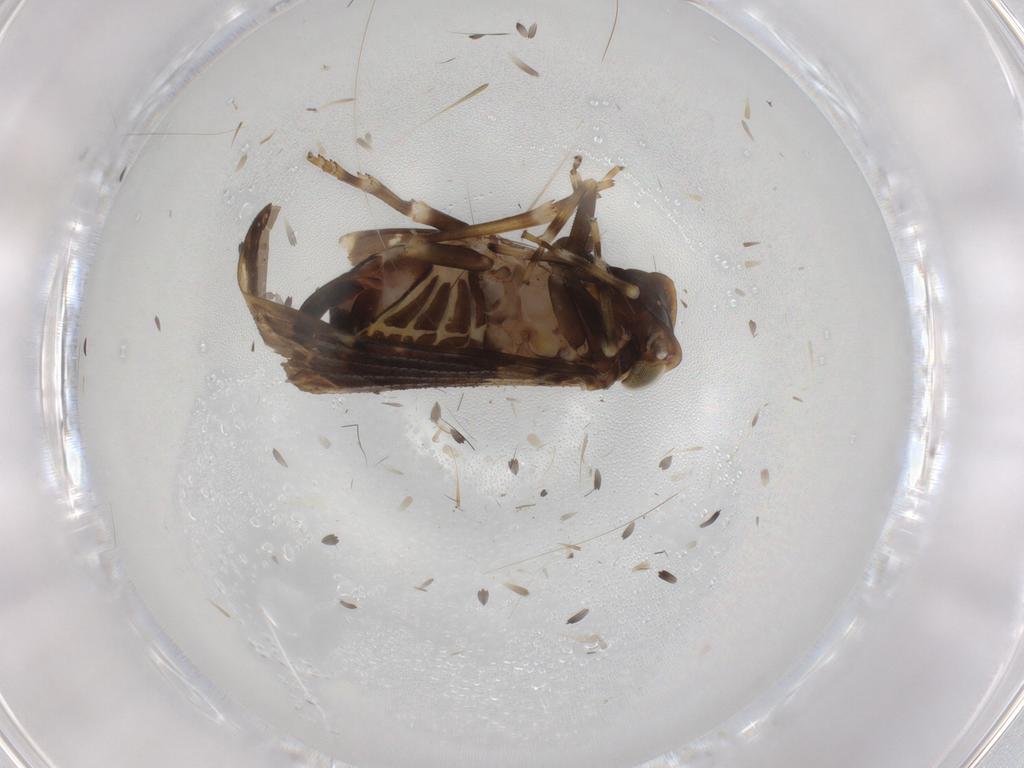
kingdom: Animalia
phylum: Arthropoda
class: Insecta
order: Hemiptera
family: Cixiidae
